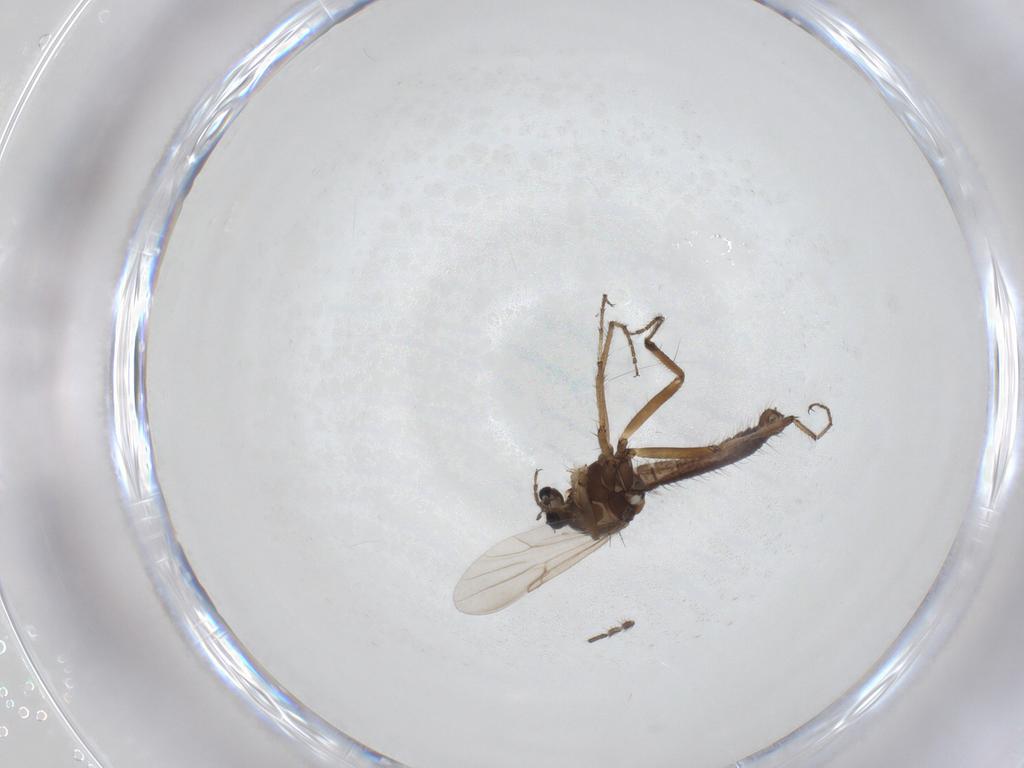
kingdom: Animalia
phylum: Arthropoda
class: Insecta
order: Diptera
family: Ceratopogonidae
